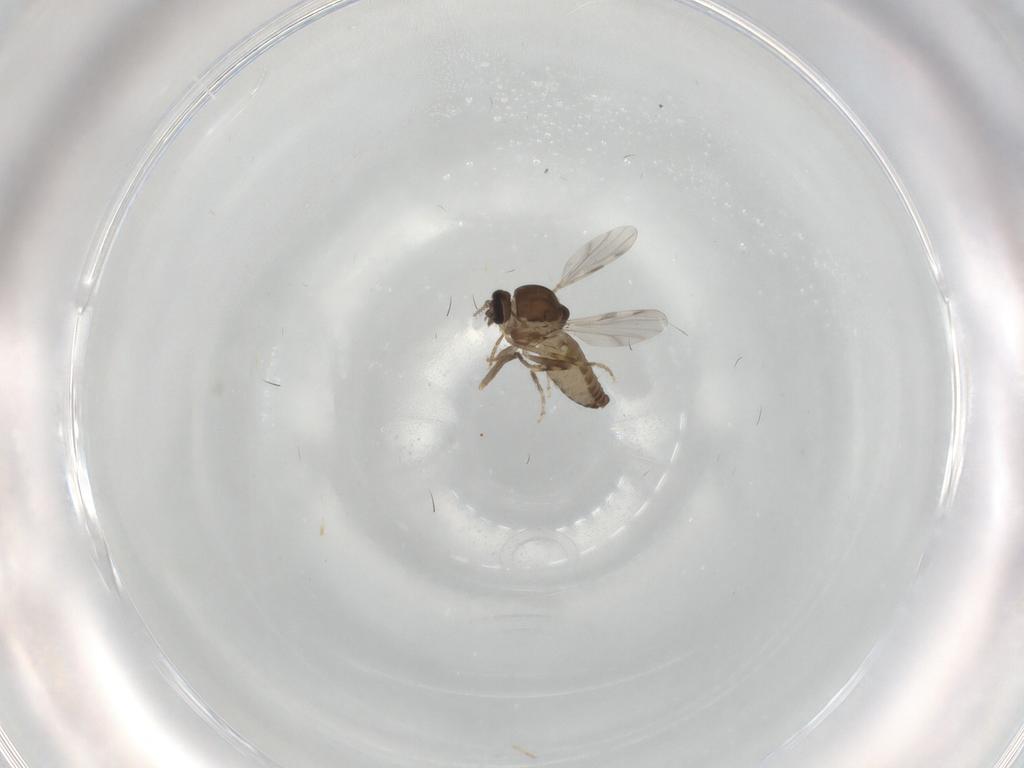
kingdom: Animalia
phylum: Arthropoda
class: Insecta
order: Diptera
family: Ceratopogonidae
